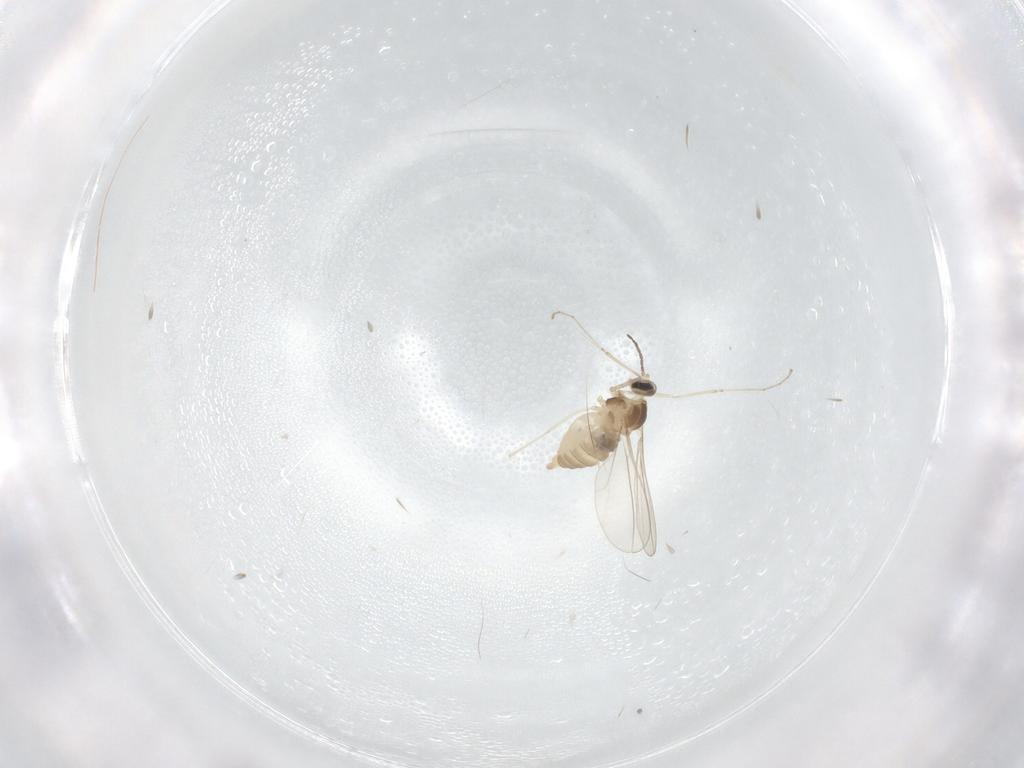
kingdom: Animalia
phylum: Arthropoda
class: Insecta
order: Diptera
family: Cecidomyiidae
